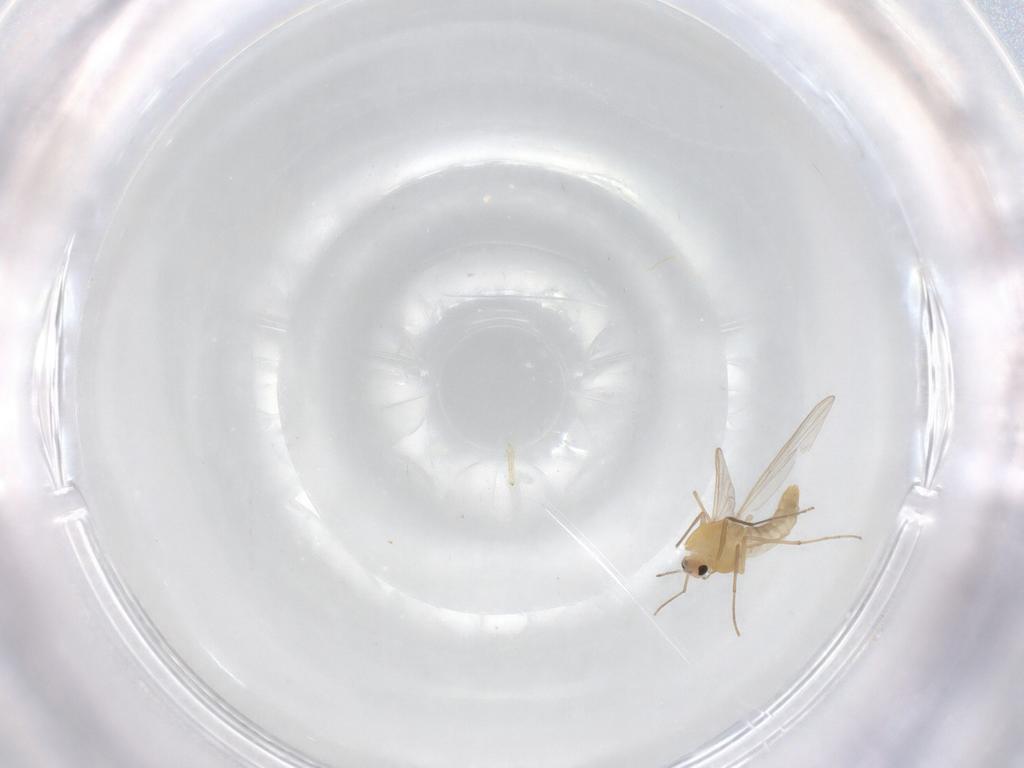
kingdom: Animalia
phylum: Arthropoda
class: Insecta
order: Diptera
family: Chironomidae
